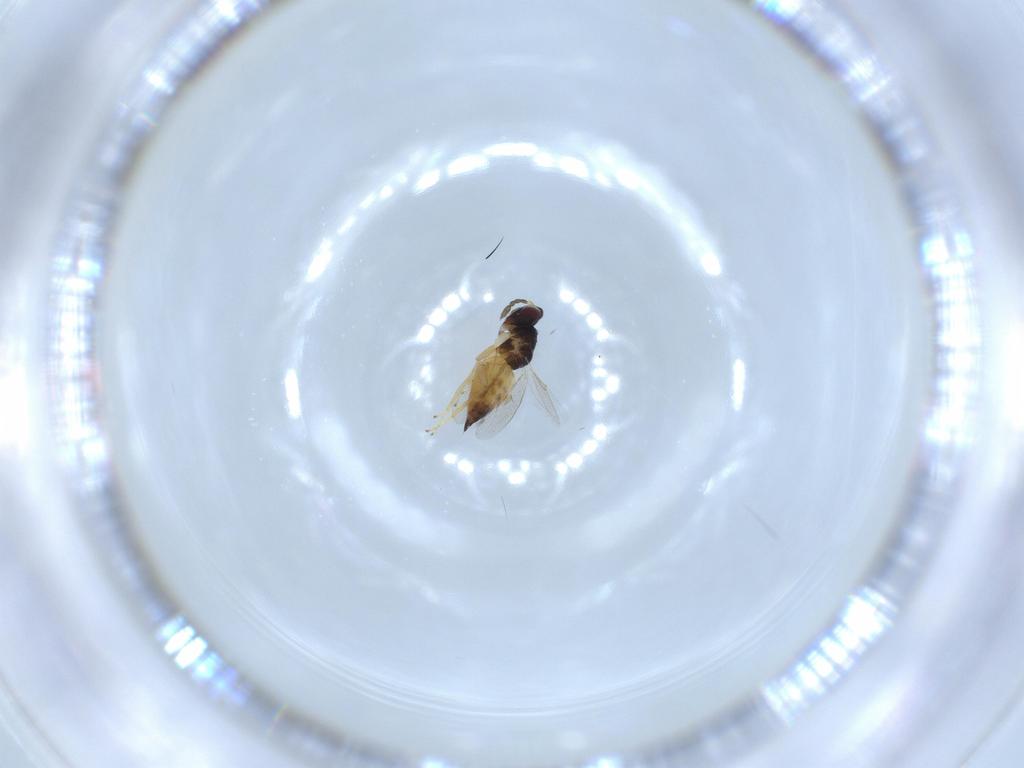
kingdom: Animalia
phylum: Arthropoda
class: Insecta
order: Hymenoptera
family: Eulophidae
